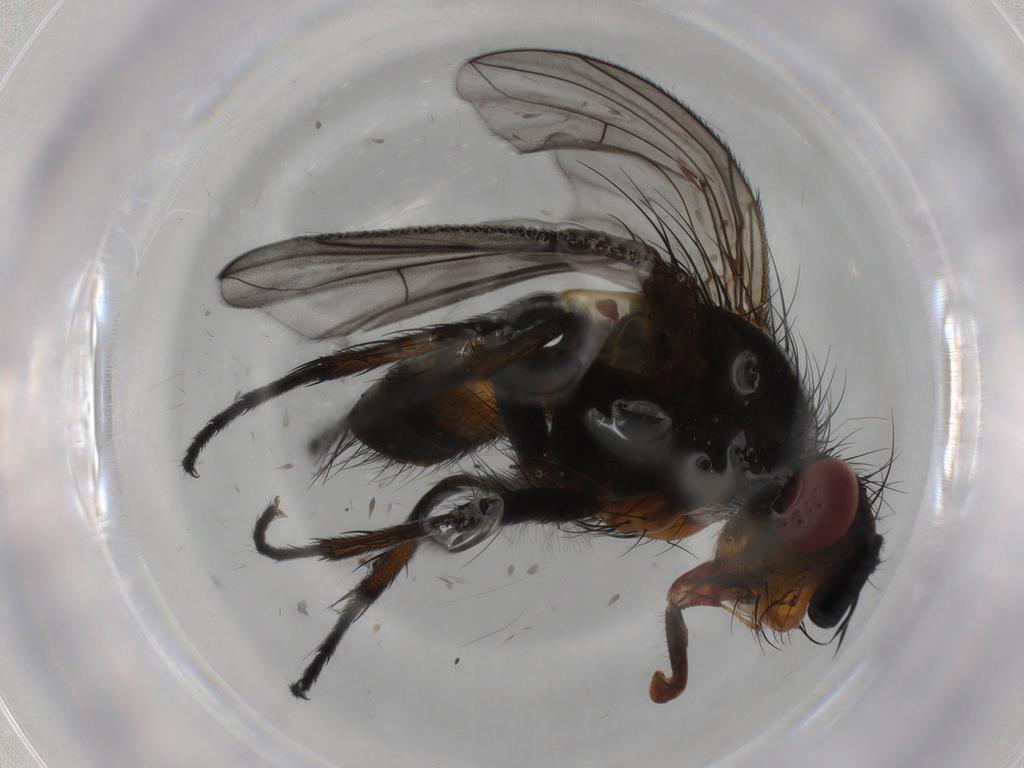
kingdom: Animalia
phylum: Arthropoda
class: Insecta
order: Diptera
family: Tachinidae
